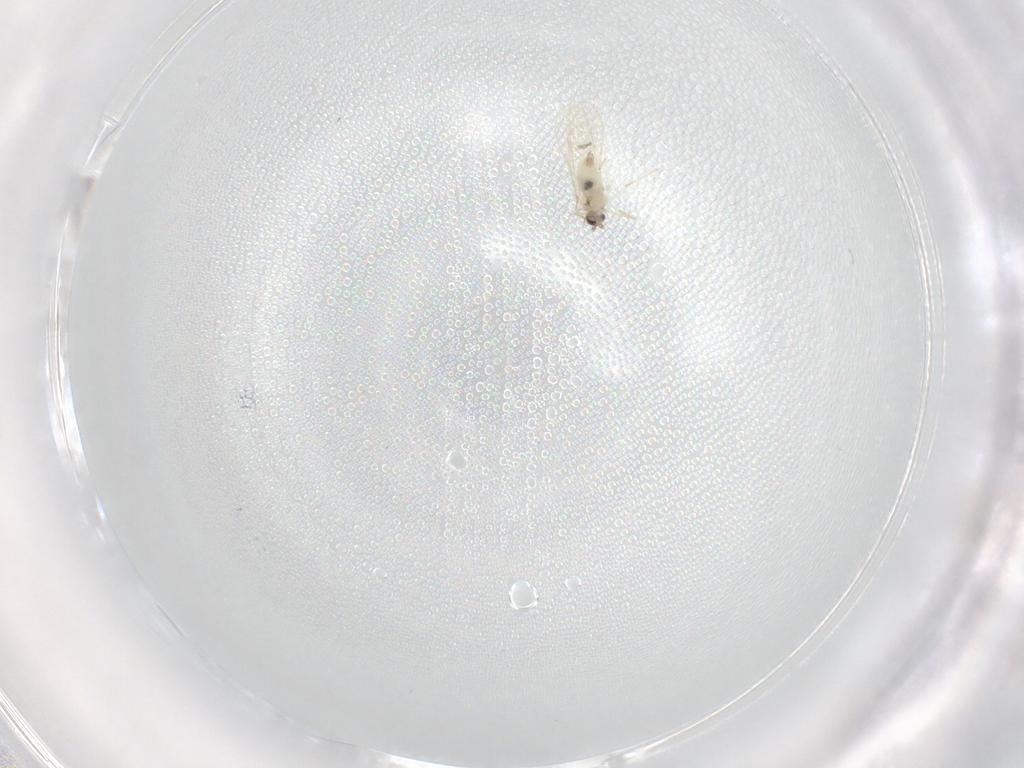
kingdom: Animalia
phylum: Arthropoda
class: Insecta
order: Diptera
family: Cecidomyiidae
